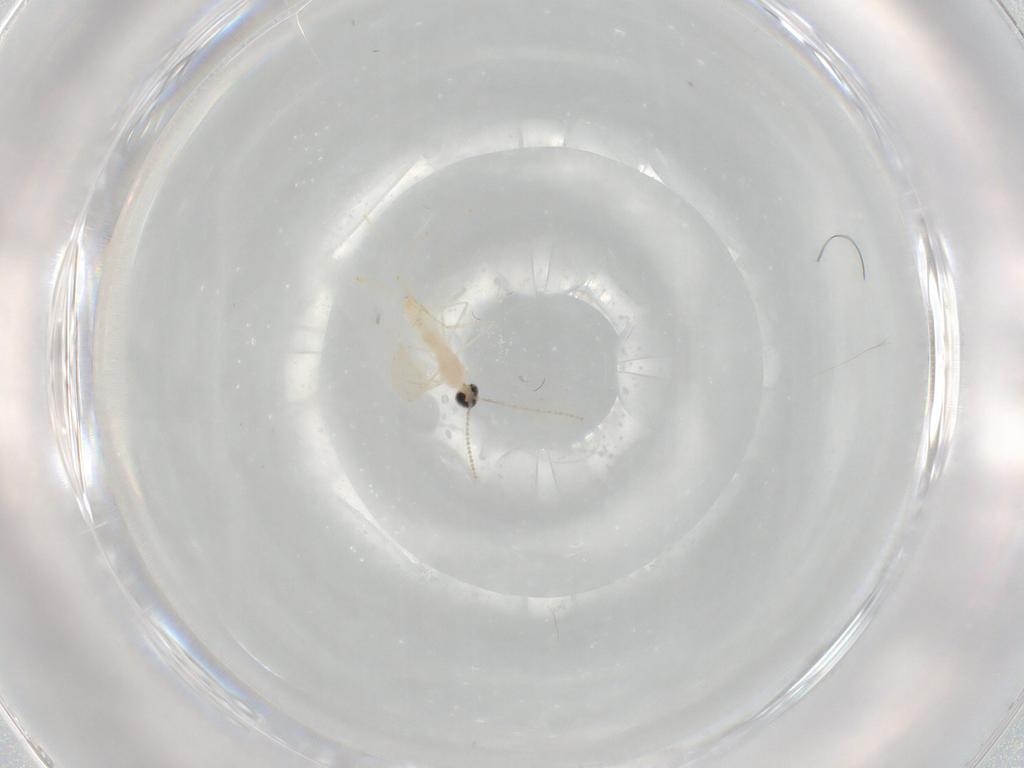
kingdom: Animalia
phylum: Arthropoda
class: Insecta
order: Diptera
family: Cecidomyiidae
